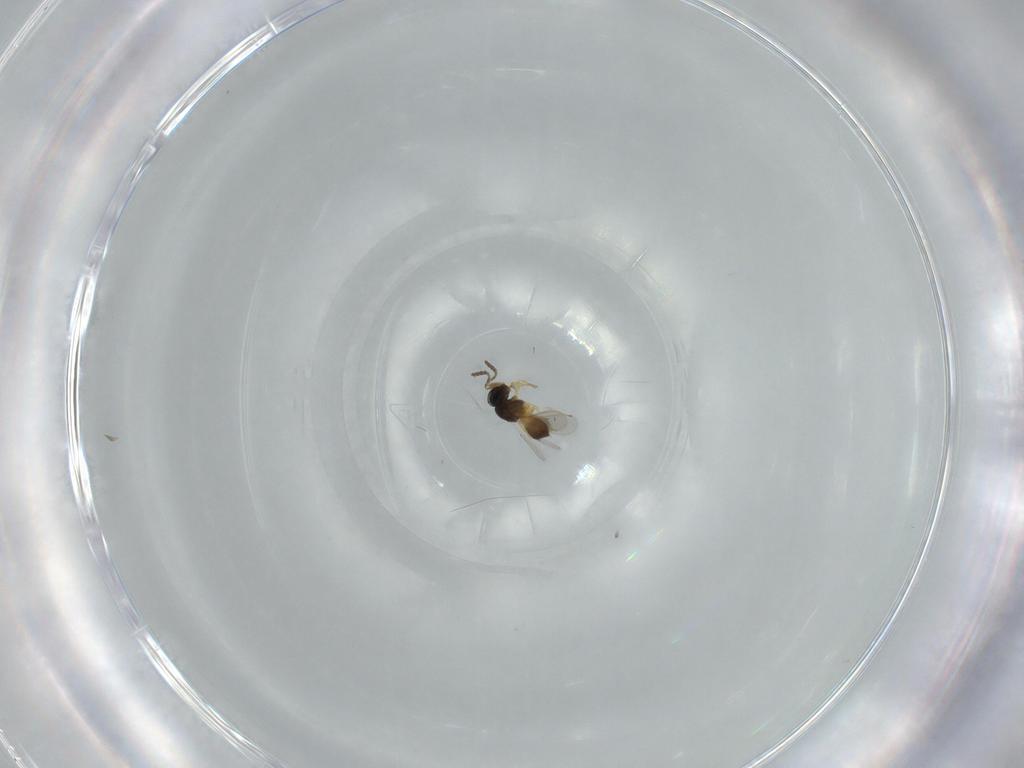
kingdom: Animalia
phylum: Arthropoda
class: Insecta
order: Hymenoptera
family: Scelionidae
